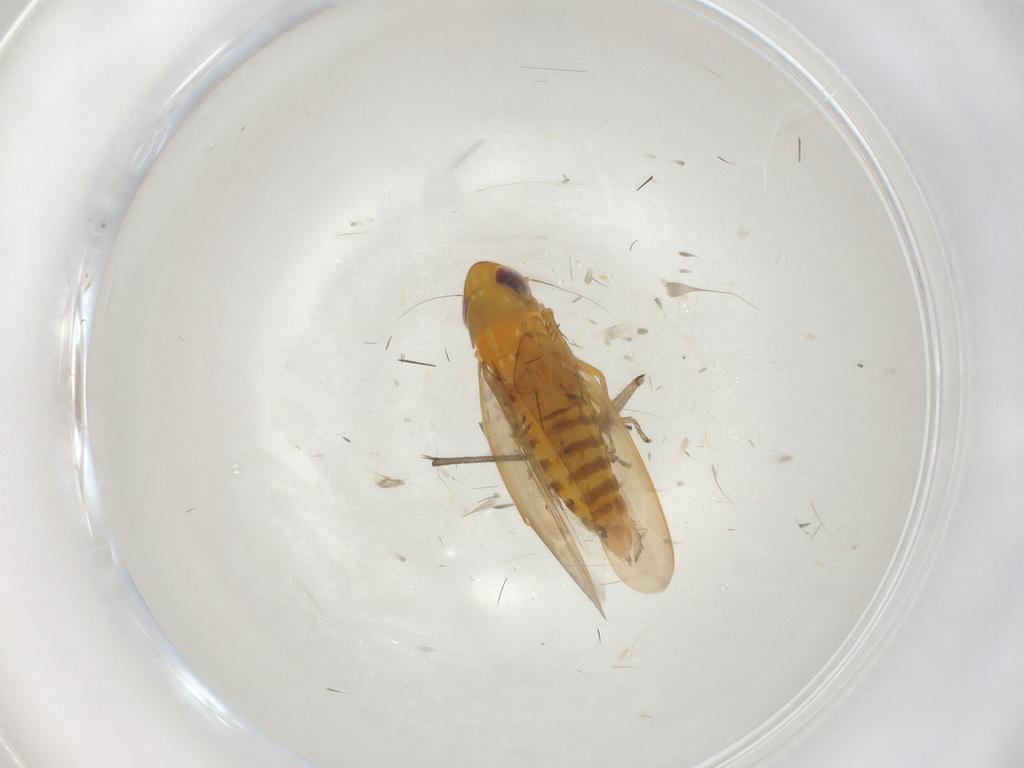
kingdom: Animalia
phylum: Arthropoda
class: Insecta
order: Hemiptera
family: Cicadellidae
